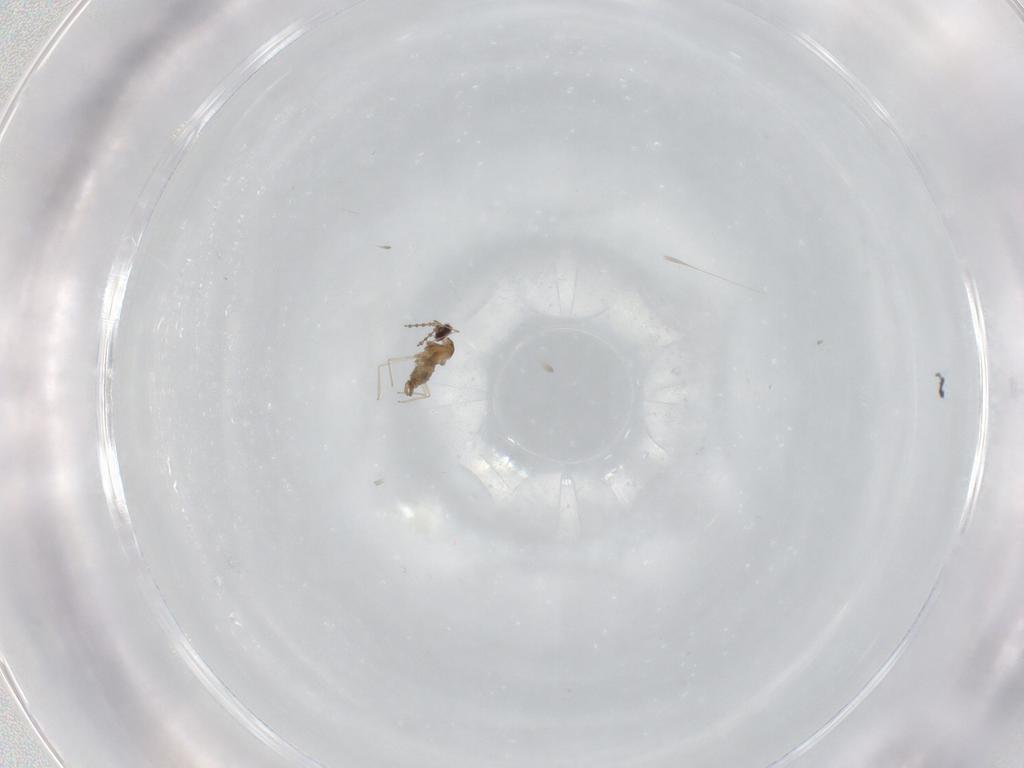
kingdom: Animalia
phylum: Arthropoda
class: Insecta
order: Diptera
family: Cecidomyiidae
